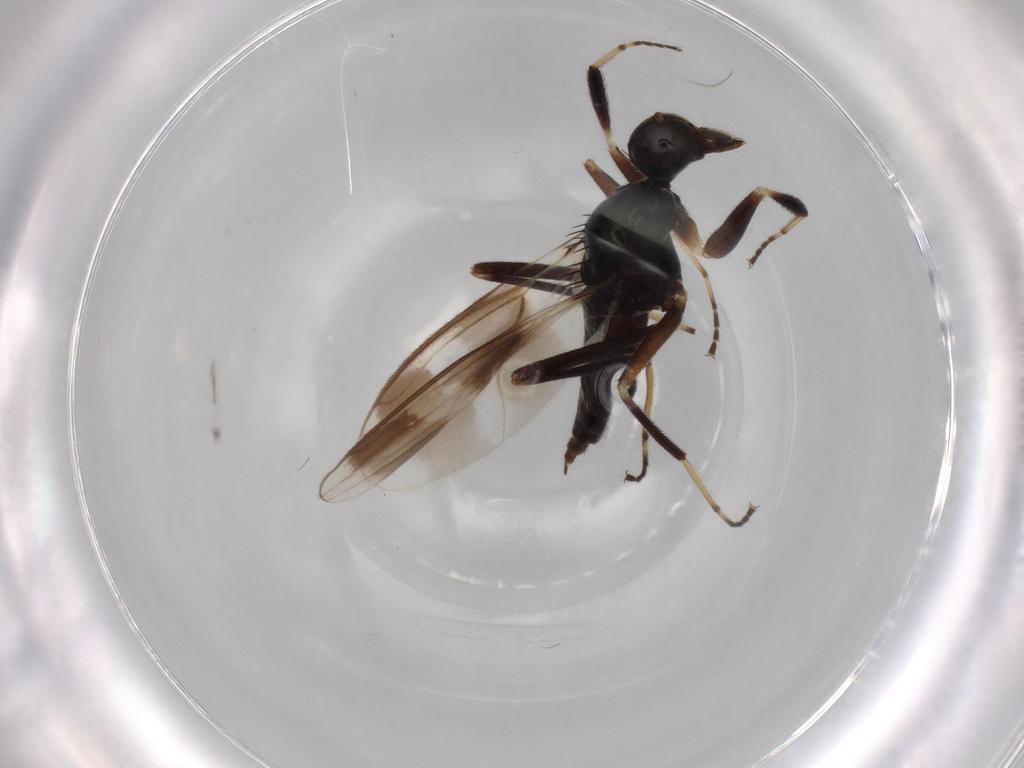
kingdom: Animalia
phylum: Arthropoda
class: Insecta
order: Diptera
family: Hybotidae
